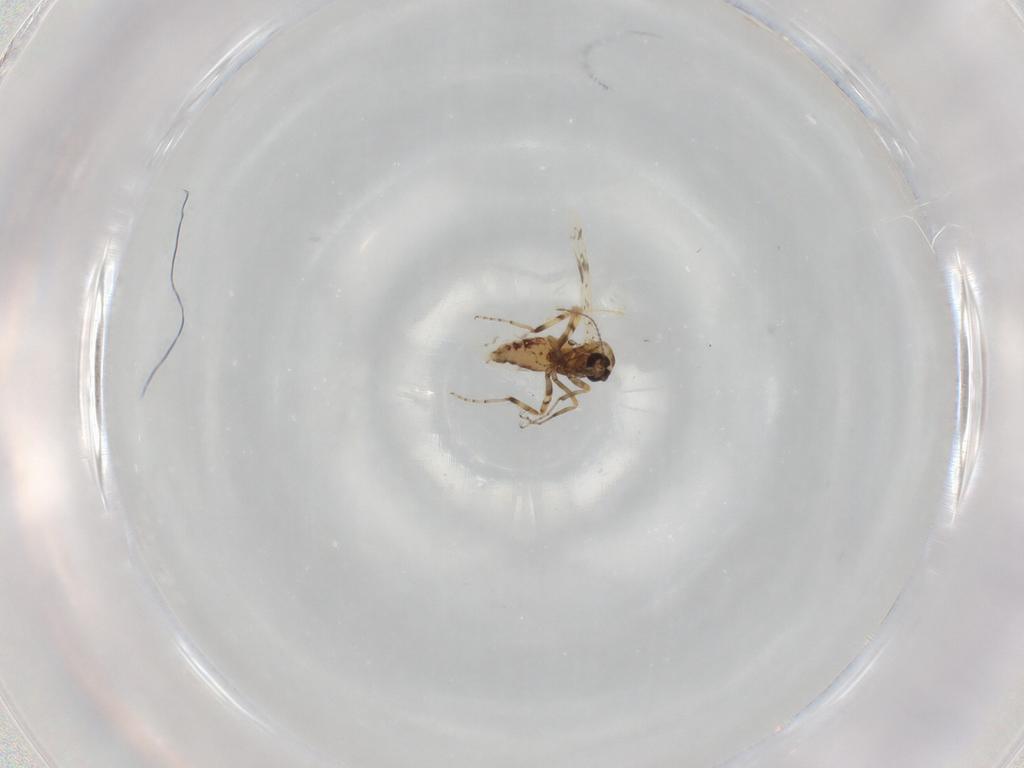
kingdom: Animalia
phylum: Arthropoda
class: Insecta
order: Diptera
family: Ceratopogonidae
